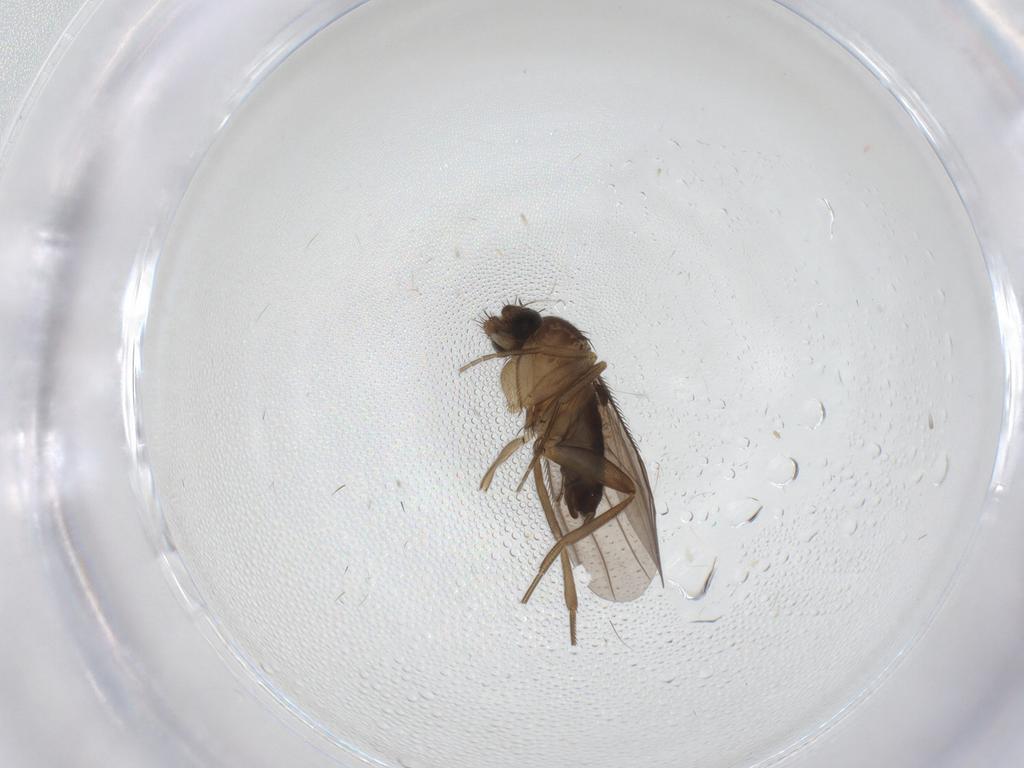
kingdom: Animalia
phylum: Arthropoda
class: Insecta
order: Diptera
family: Phoridae
